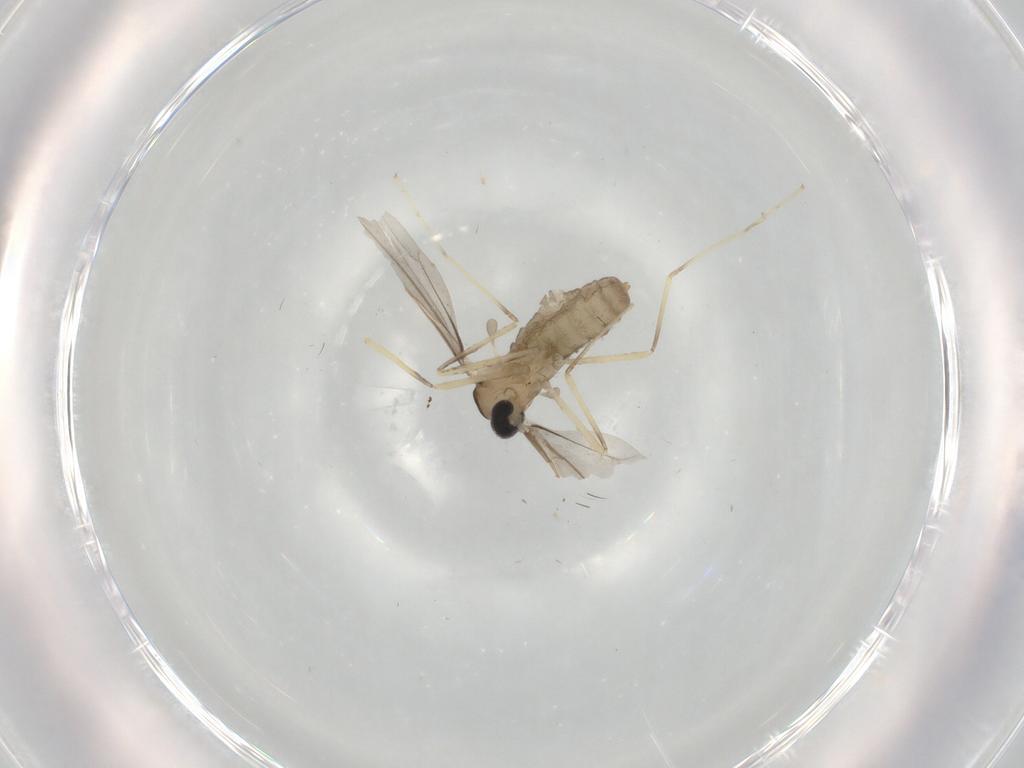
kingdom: Animalia
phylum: Arthropoda
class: Insecta
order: Diptera
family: Cecidomyiidae
